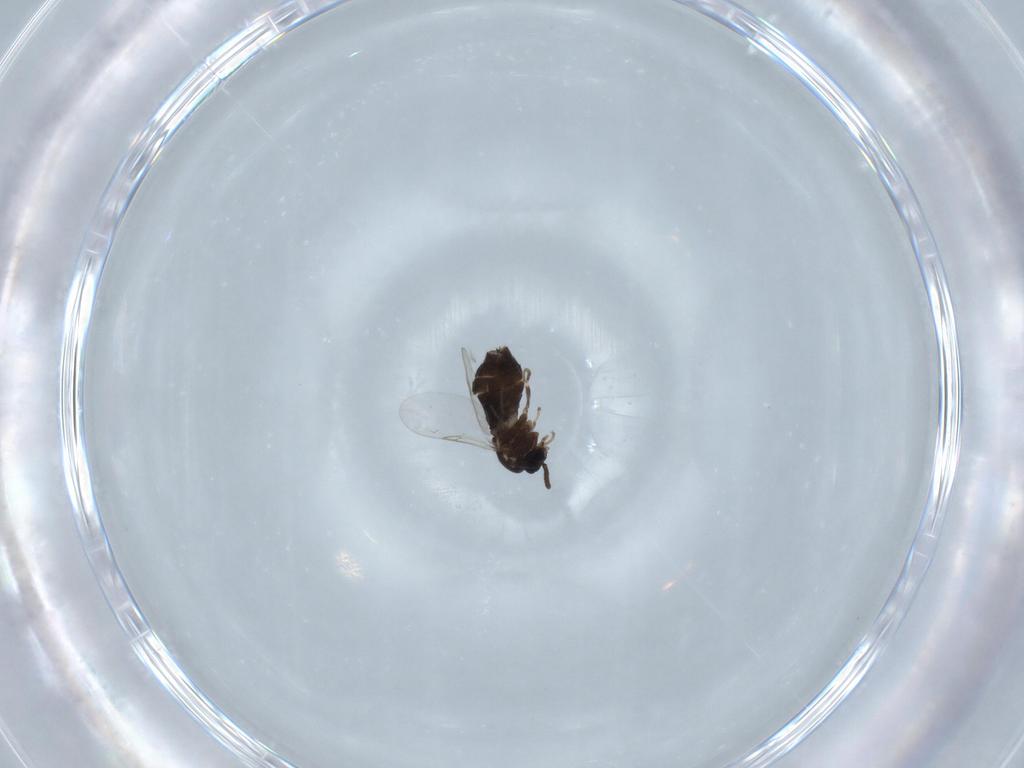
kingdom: Animalia
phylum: Arthropoda
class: Insecta
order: Diptera
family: Scatopsidae
